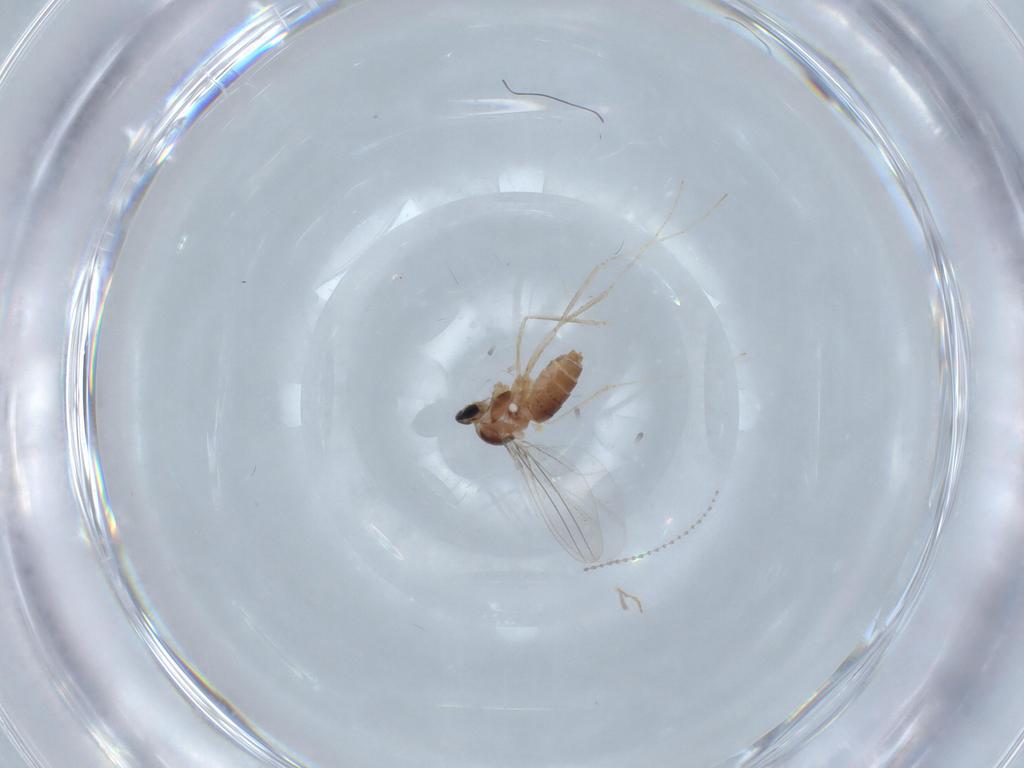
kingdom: Animalia
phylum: Arthropoda
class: Insecta
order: Diptera
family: Cecidomyiidae
